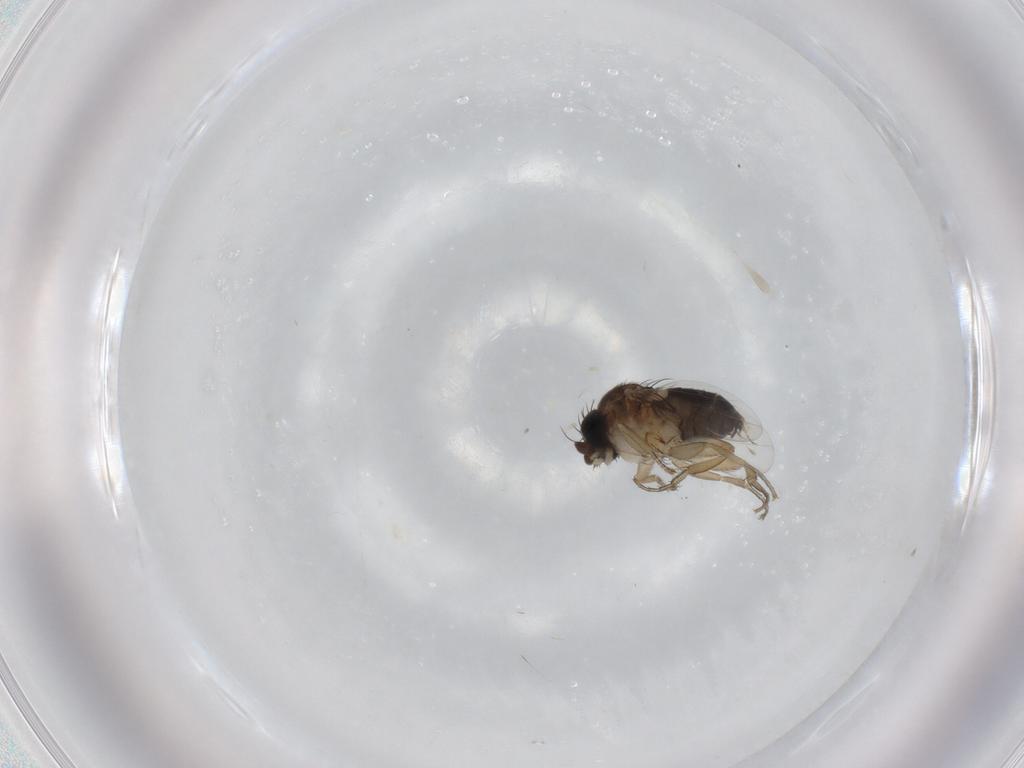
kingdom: Animalia
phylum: Arthropoda
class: Insecta
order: Diptera
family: Phoridae
